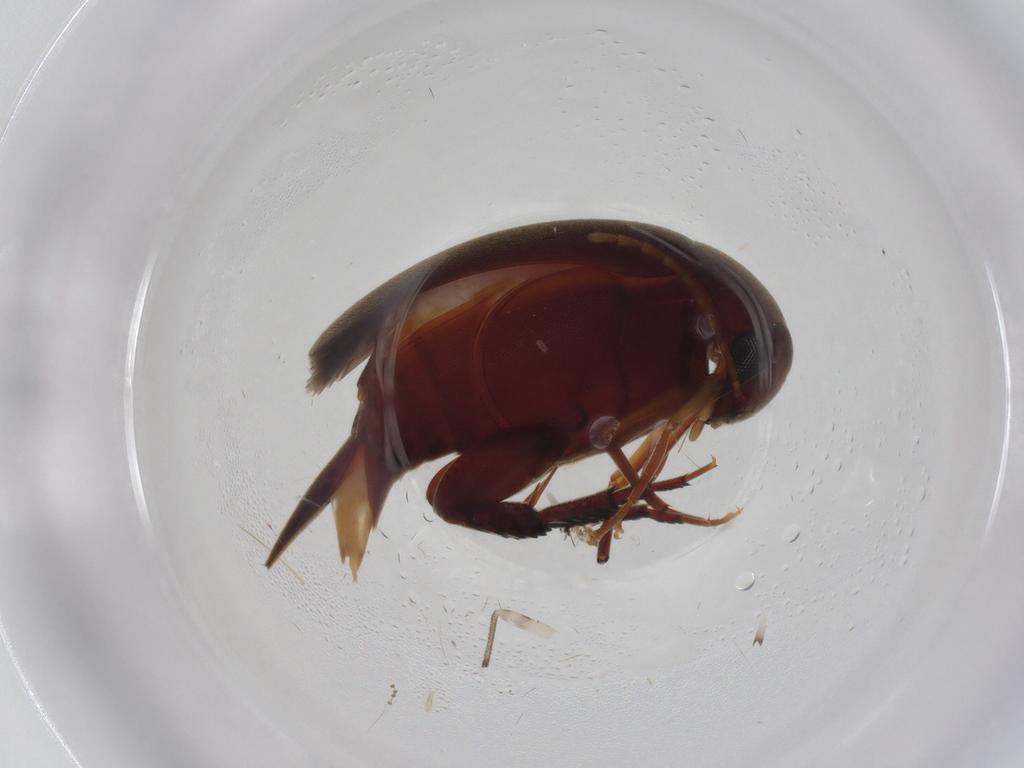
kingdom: Animalia
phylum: Arthropoda
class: Insecta
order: Coleoptera
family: Mordellidae
